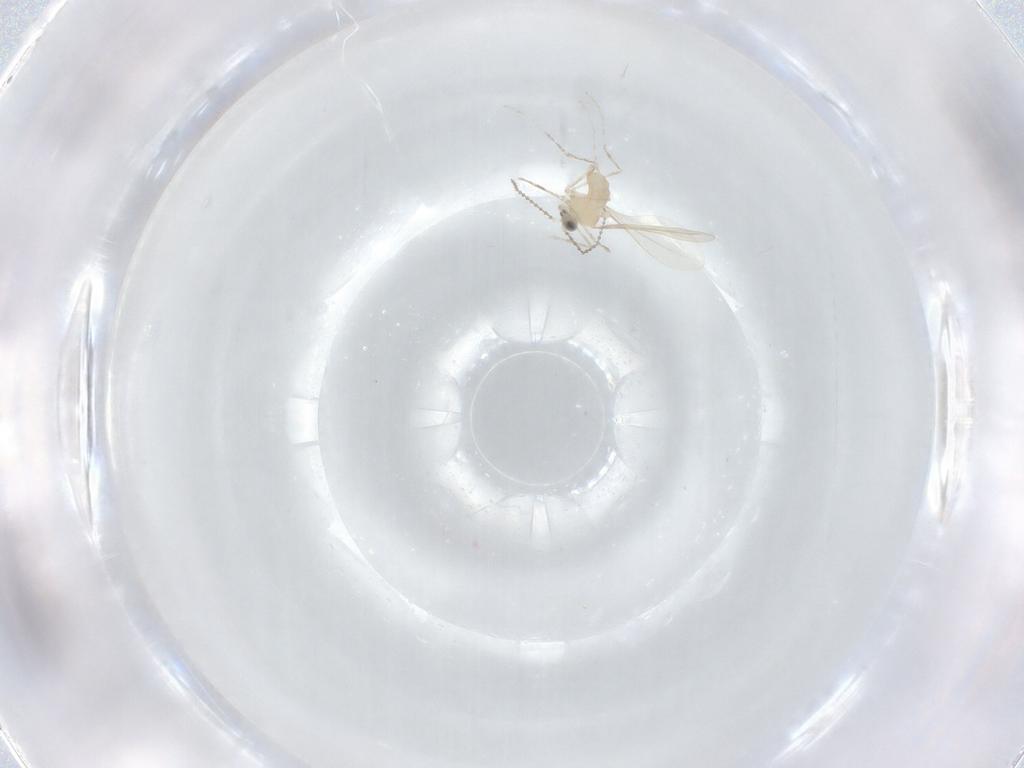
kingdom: Animalia
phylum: Arthropoda
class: Insecta
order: Diptera
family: Cecidomyiidae
